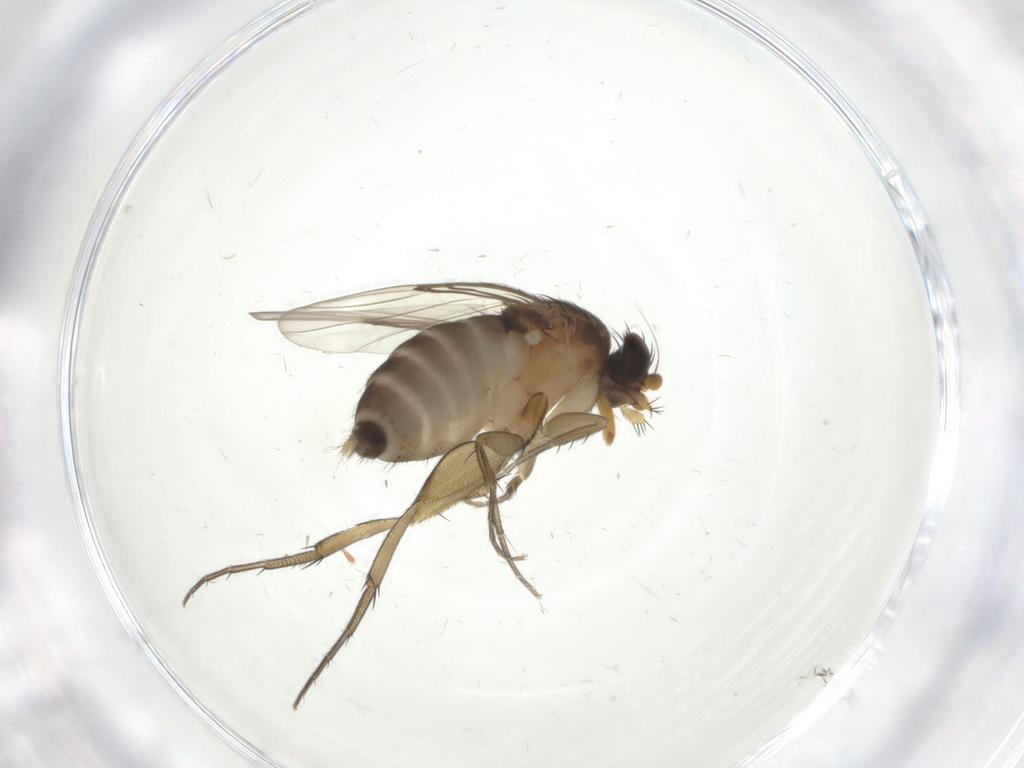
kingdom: Animalia
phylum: Arthropoda
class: Insecta
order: Diptera
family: Phoridae
